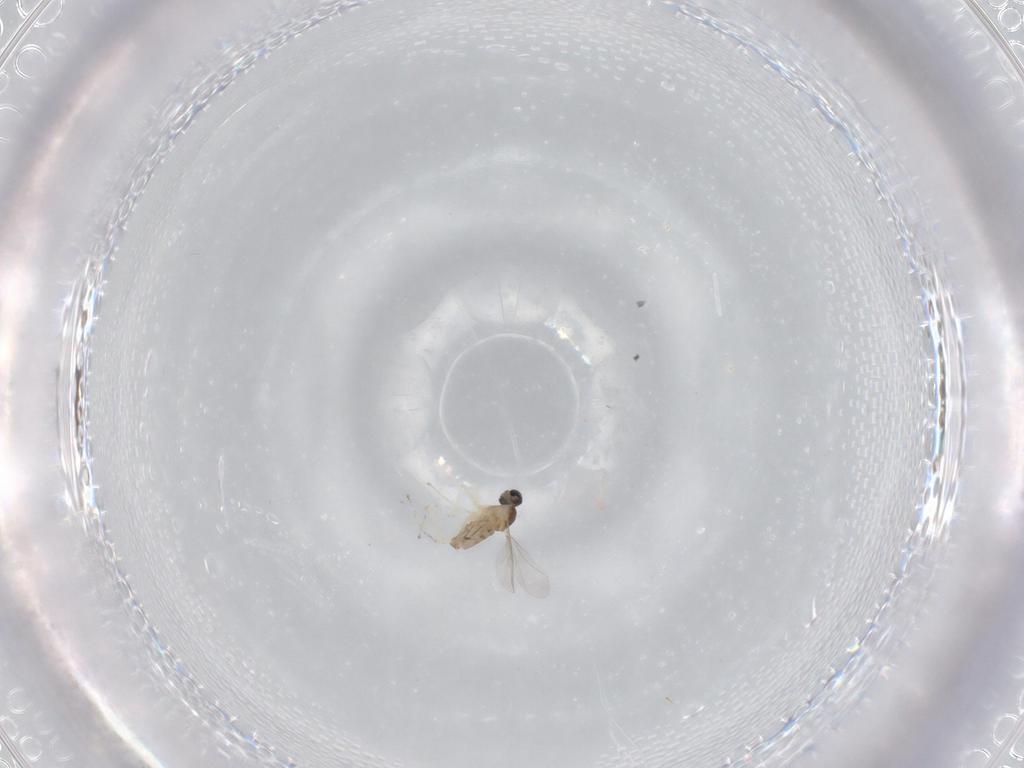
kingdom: Animalia
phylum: Arthropoda
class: Insecta
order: Diptera
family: Cecidomyiidae
